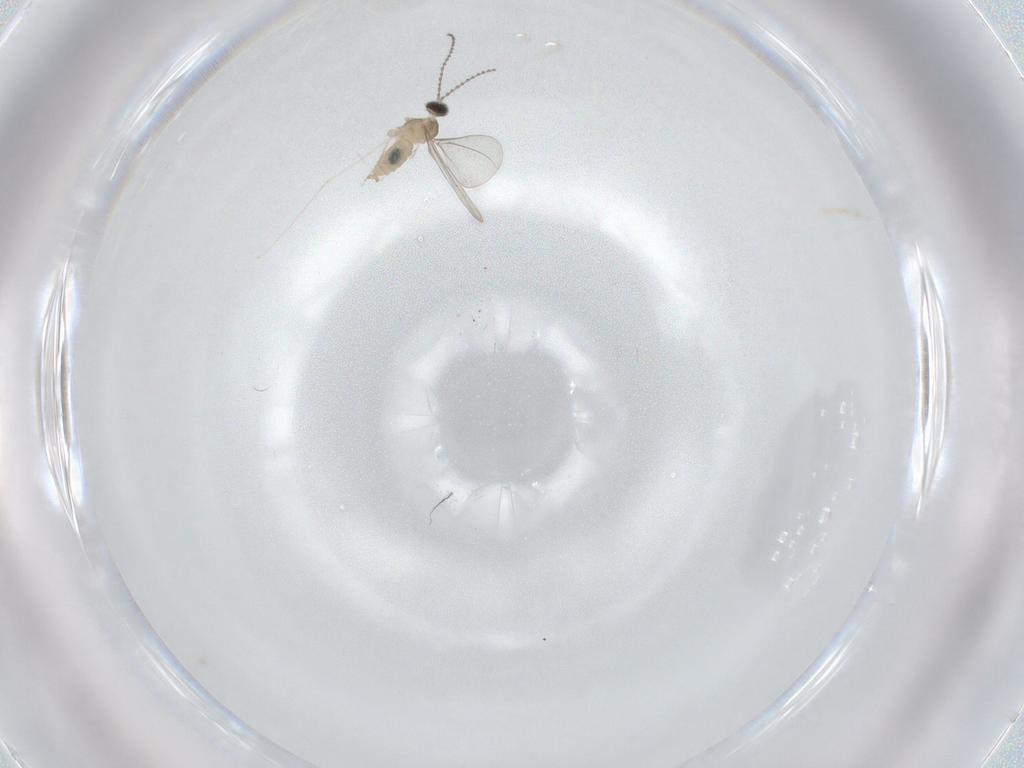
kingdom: Animalia
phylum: Arthropoda
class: Insecta
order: Diptera
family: Cecidomyiidae
